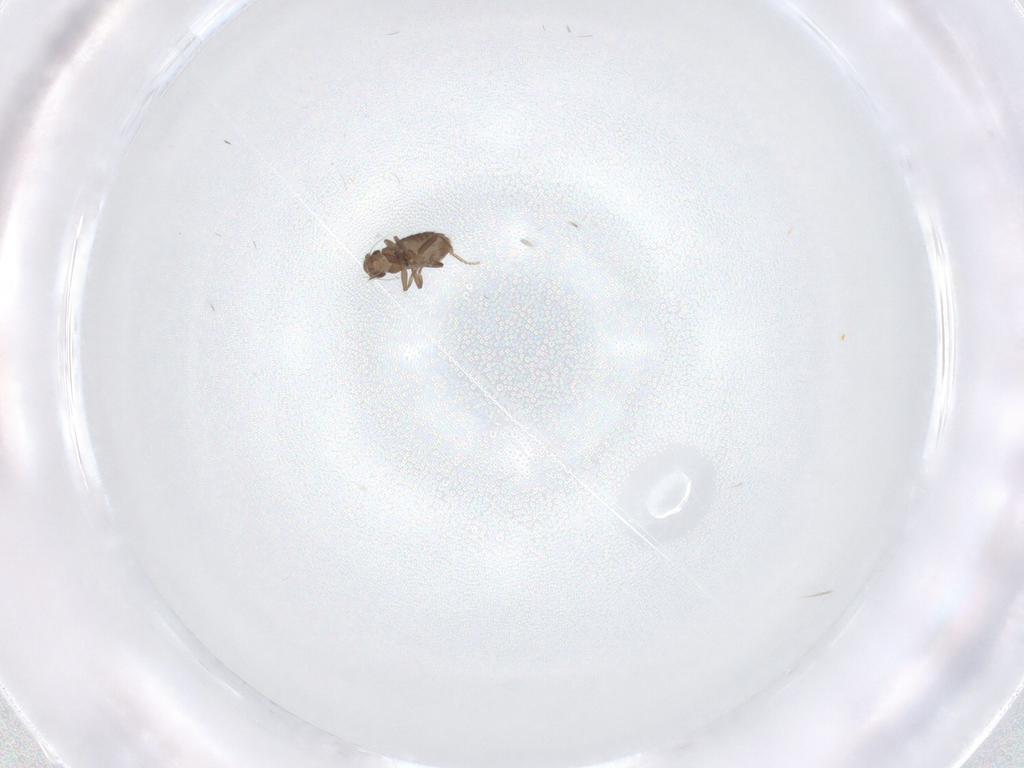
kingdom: Animalia
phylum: Arthropoda
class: Insecta
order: Diptera
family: Phoridae
